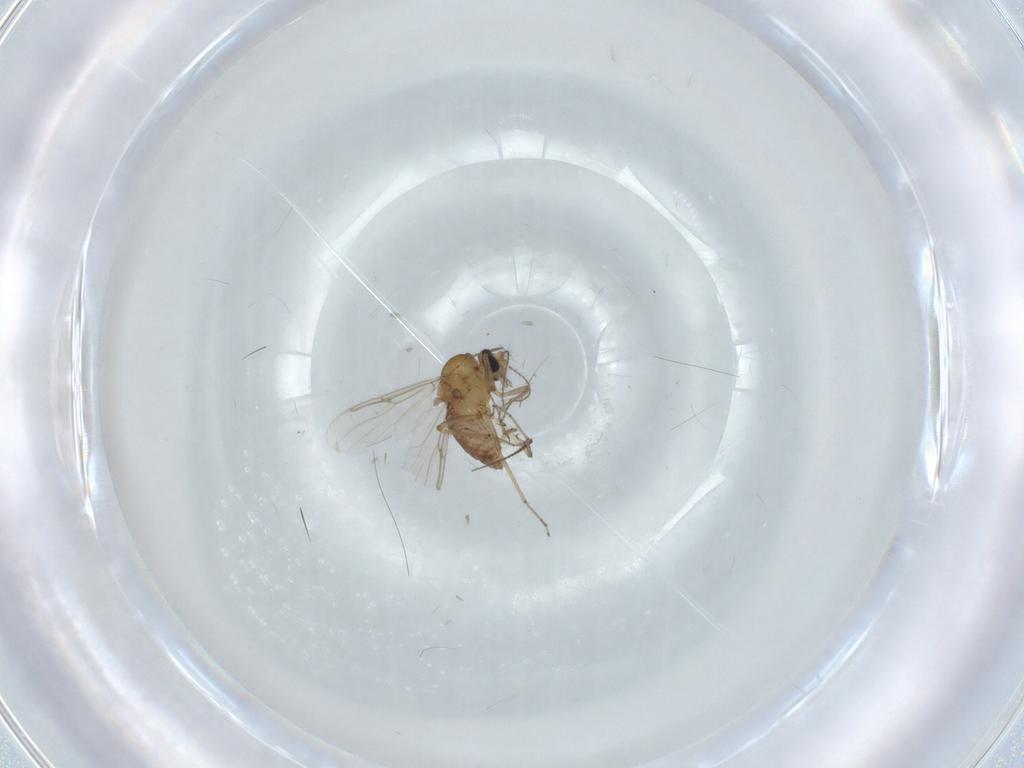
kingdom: Animalia
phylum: Arthropoda
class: Insecta
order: Diptera
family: Ceratopogonidae
